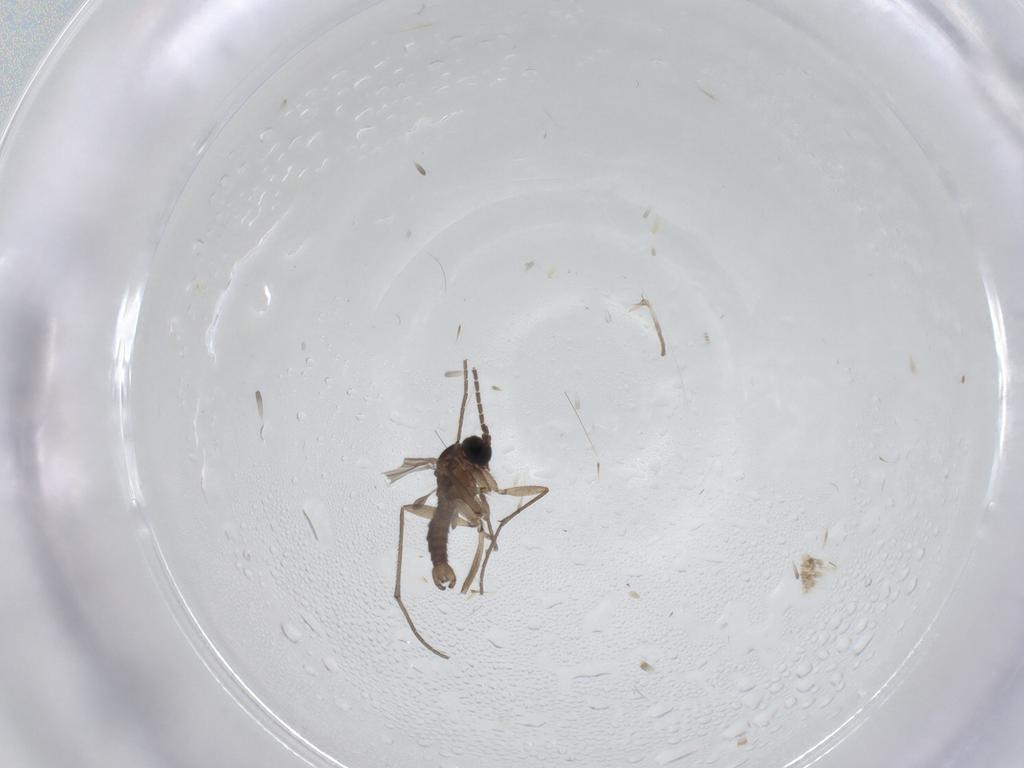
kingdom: Animalia
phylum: Arthropoda
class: Insecta
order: Diptera
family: Psychodidae
